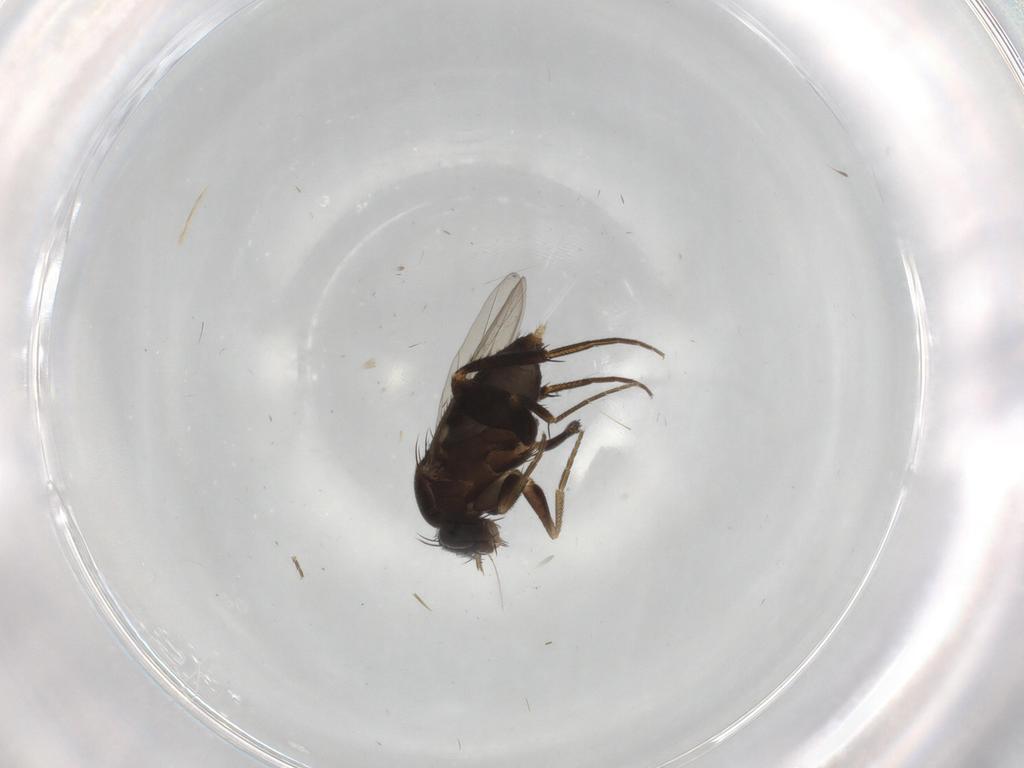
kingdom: Animalia
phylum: Arthropoda
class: Insecta
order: Diptera
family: Phoridae
